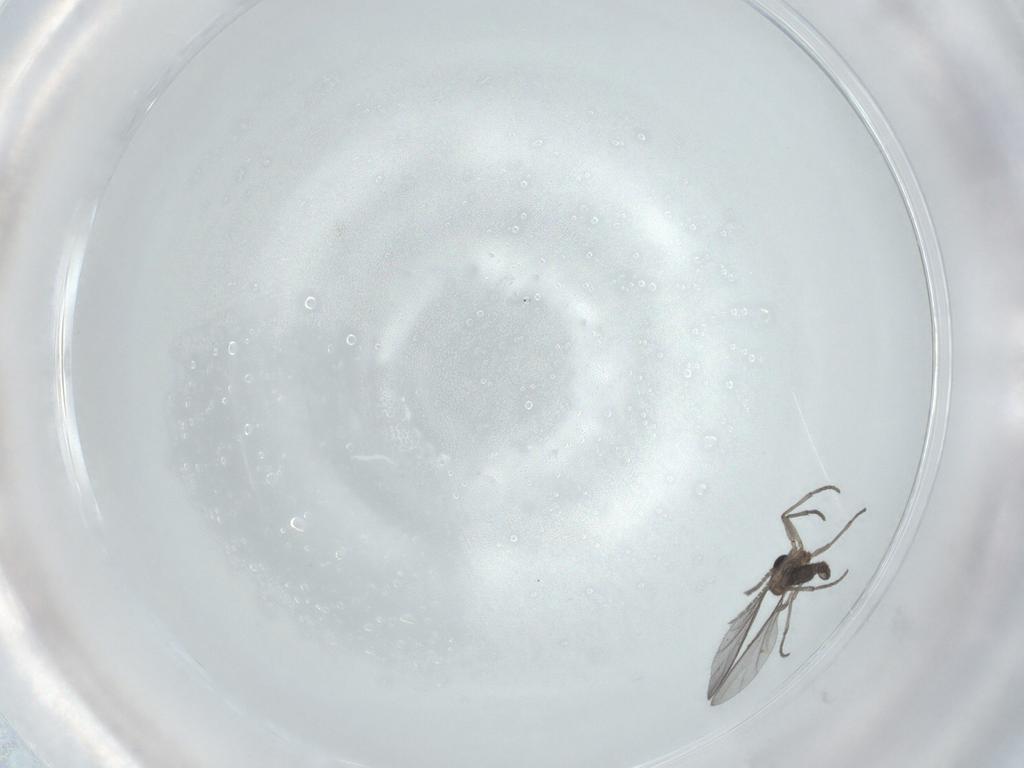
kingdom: Animalia
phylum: Arthropoda
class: Insecta
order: Diptera
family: Sciaridae
